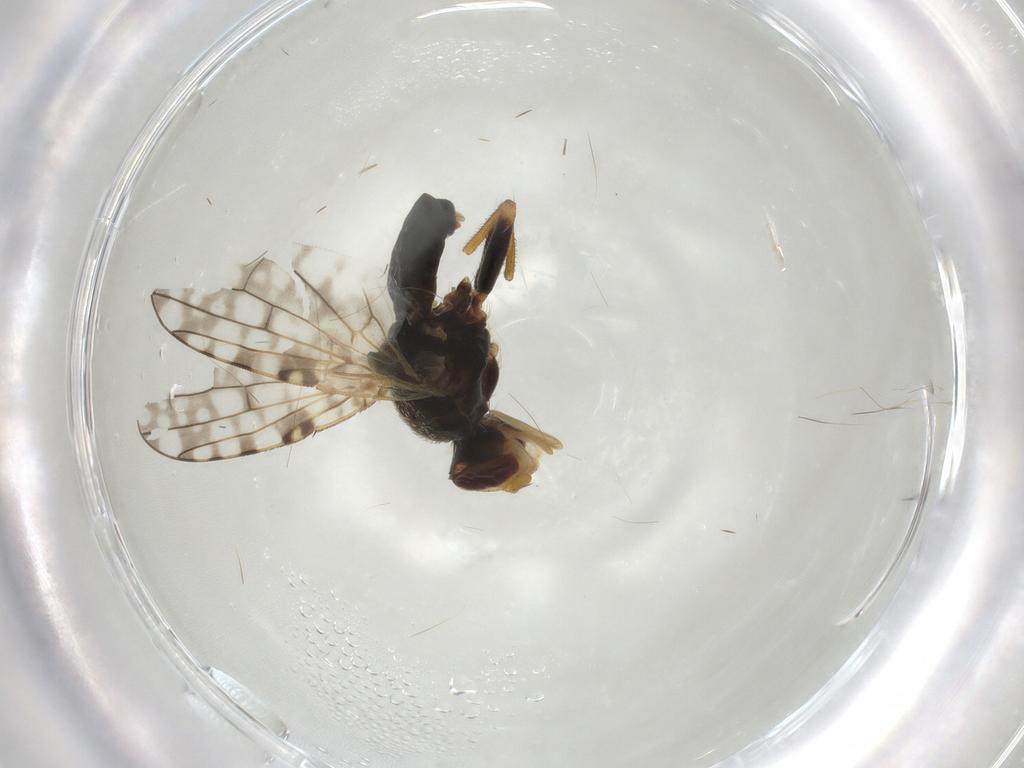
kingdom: Animalia
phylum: Arthropoda
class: Insecta
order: Diptera
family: Tephritidae
